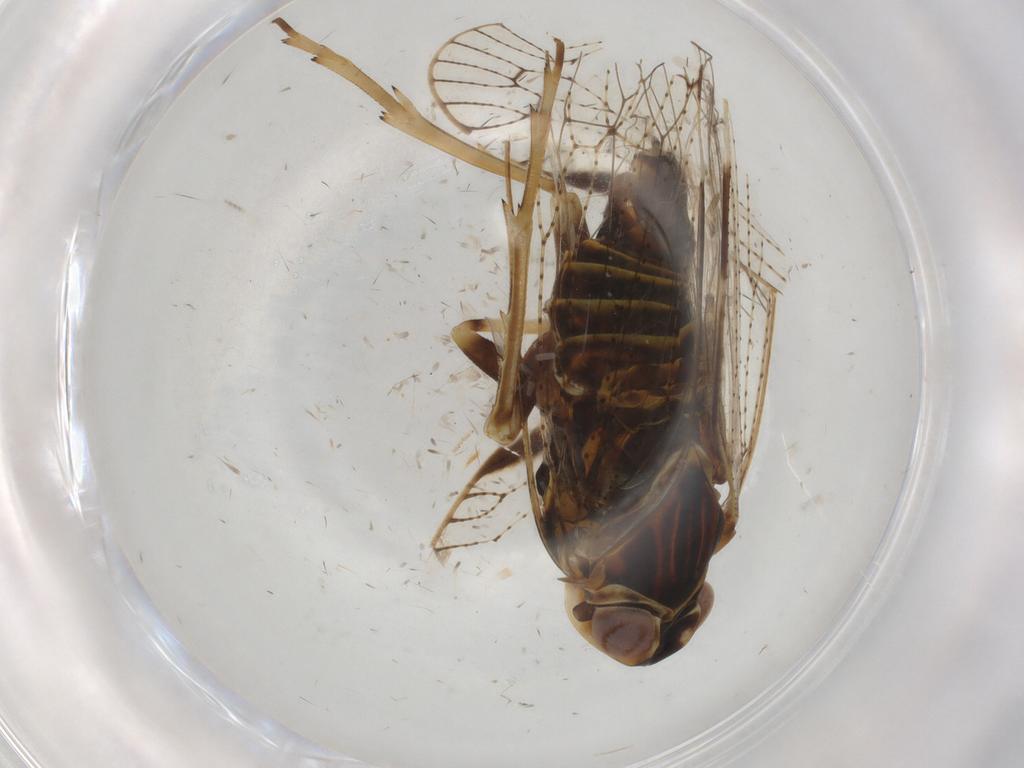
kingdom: Animalia
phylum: Arthropoda
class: Insecta
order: Hemiptera
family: Cixiidae
